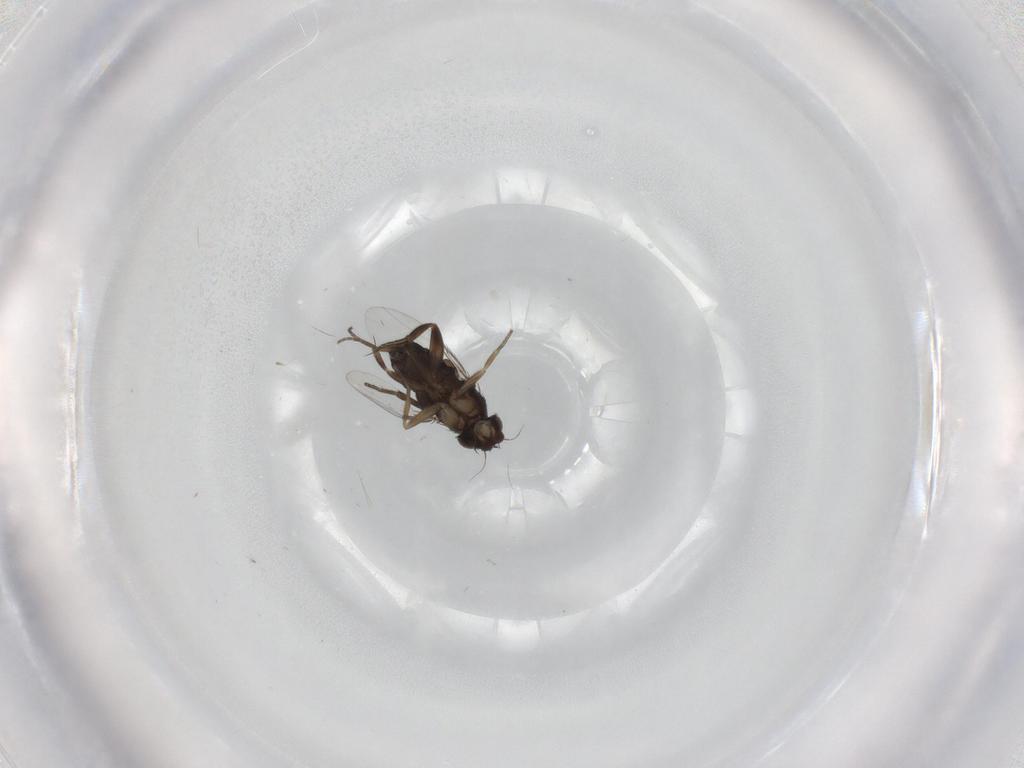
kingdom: Animalia
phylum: Arthropoda
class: Insecta
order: Diptera
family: Phoridae
